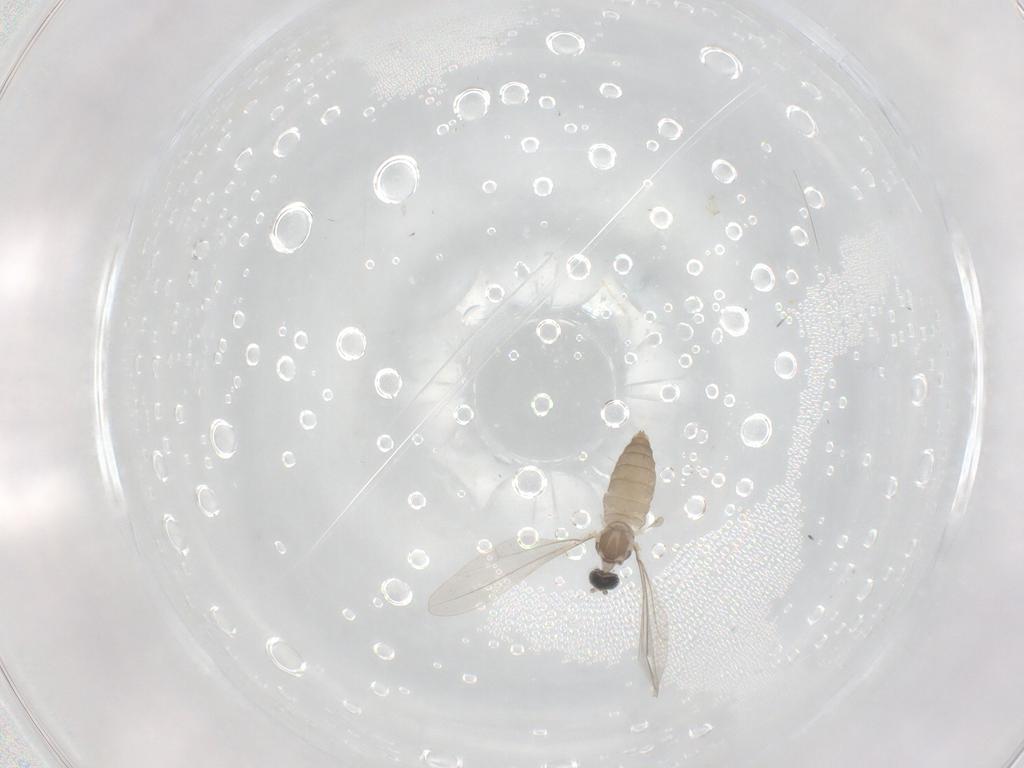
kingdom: Animalia
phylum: Arthropoda
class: Insecta
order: Diptera
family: Cecidomyiidae
